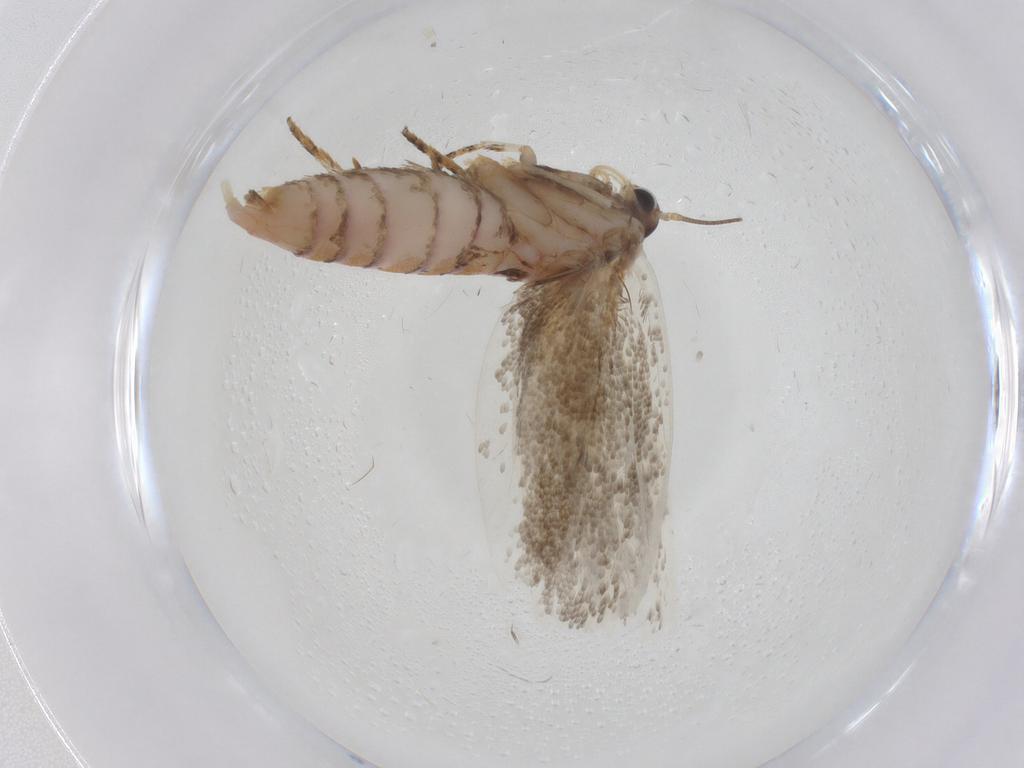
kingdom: Animalia
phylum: Arthropoda
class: Insecta
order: Lepidoptera
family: Oecophoridae
